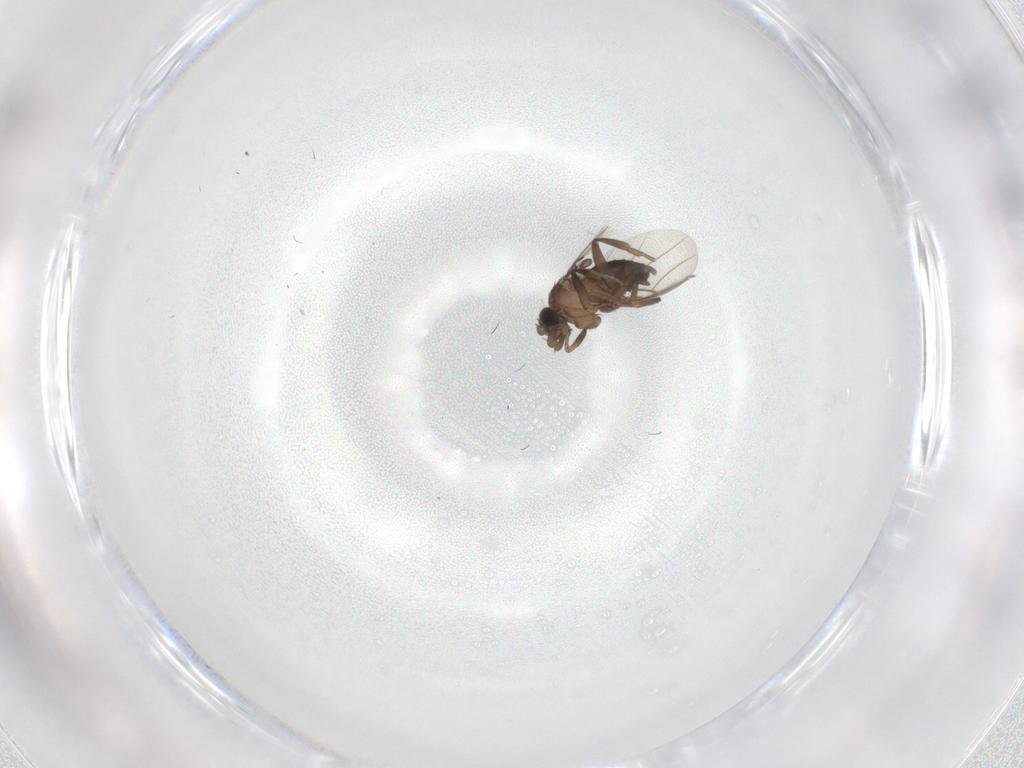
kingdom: Animalia
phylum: Arthropoda
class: Insecta
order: Diptera
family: Phoridae
